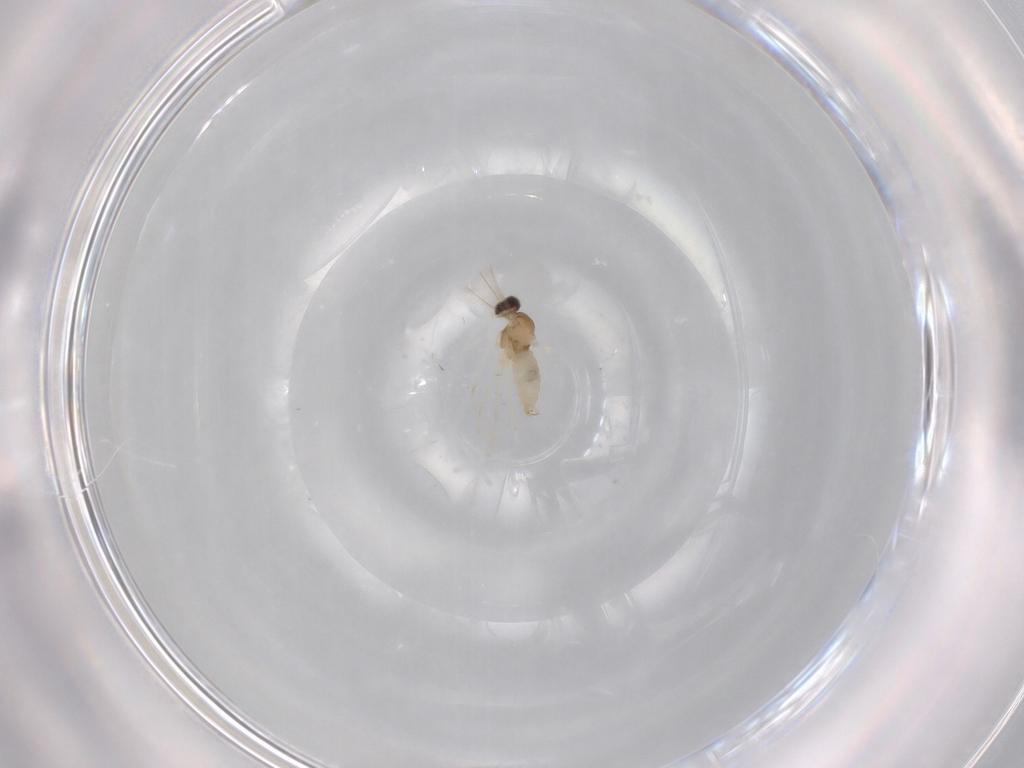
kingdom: Animalia
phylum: Arthropoda
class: Insecta
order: Diptera
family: Cecidomyiidae
